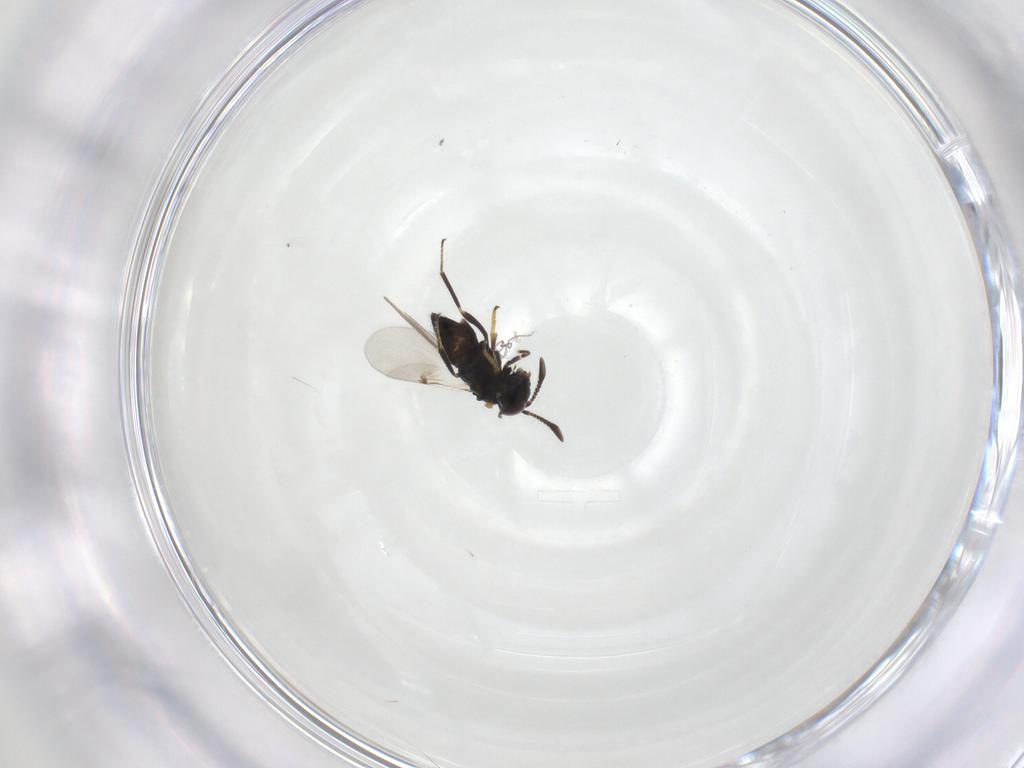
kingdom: Animalia
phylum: Arthropoda
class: Insecta
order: Hymenoptera
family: Encyrtidae
